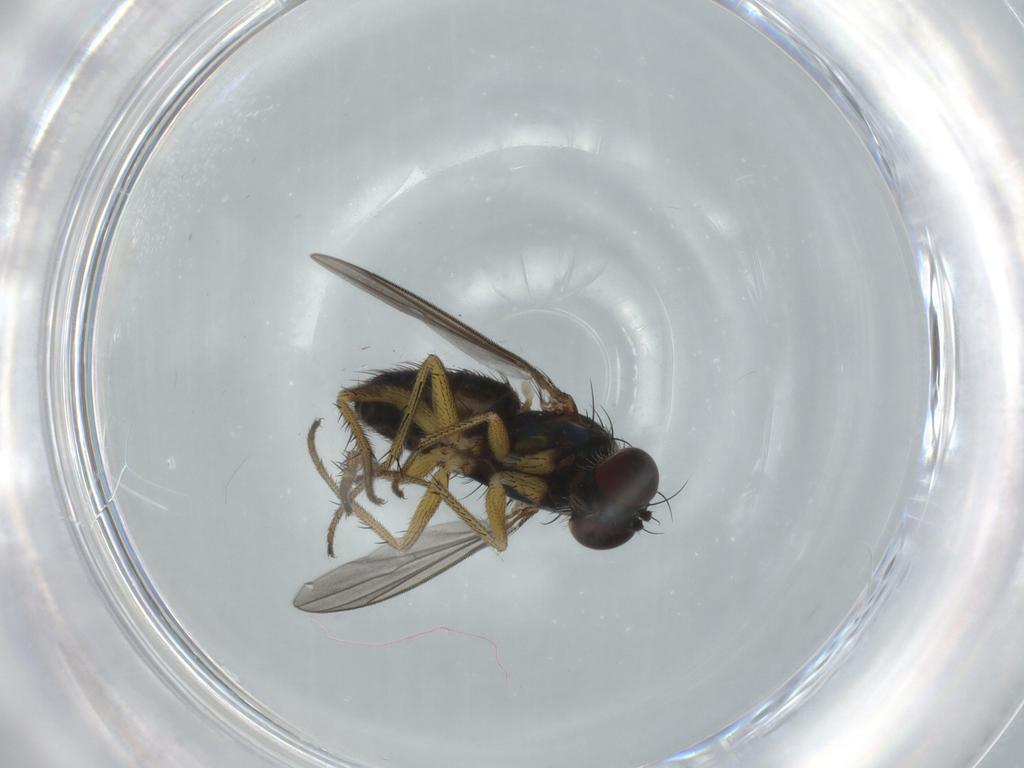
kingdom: Animalia
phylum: Arthropoda
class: Insecta
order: Diptera
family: Dolichopodidae
